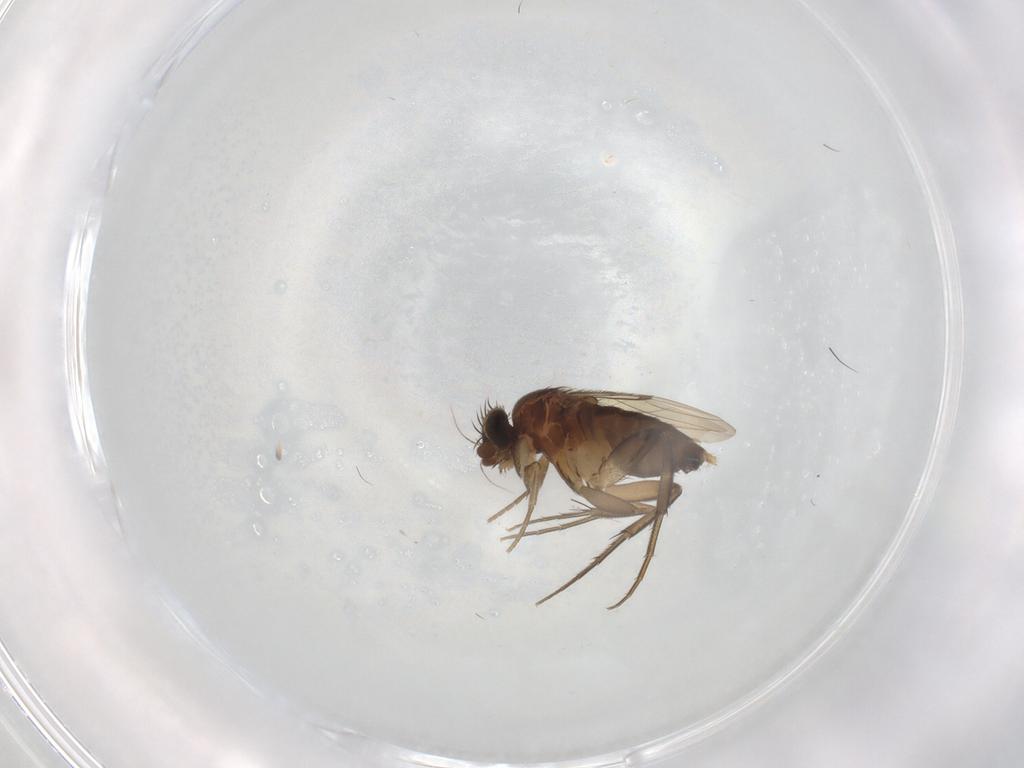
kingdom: Animalia
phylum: Arthropoda
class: Insecta
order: Diptera
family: Phoridae
